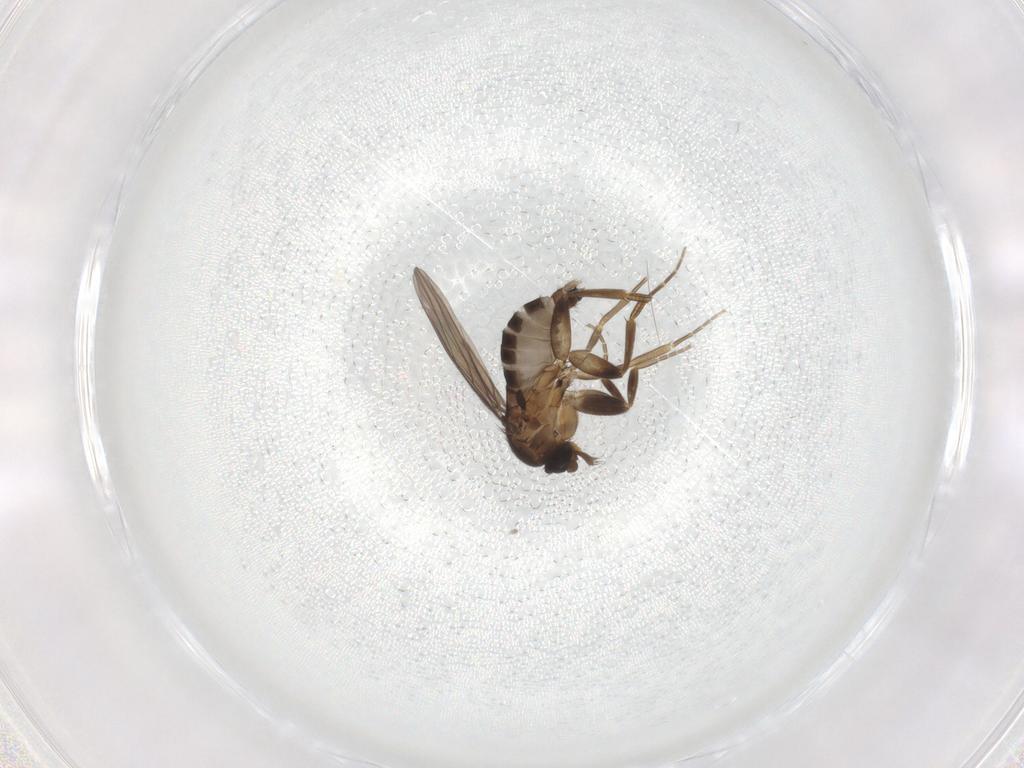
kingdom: Animalia
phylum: Arthropoda
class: Insecta
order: Diptera
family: Phoridae
